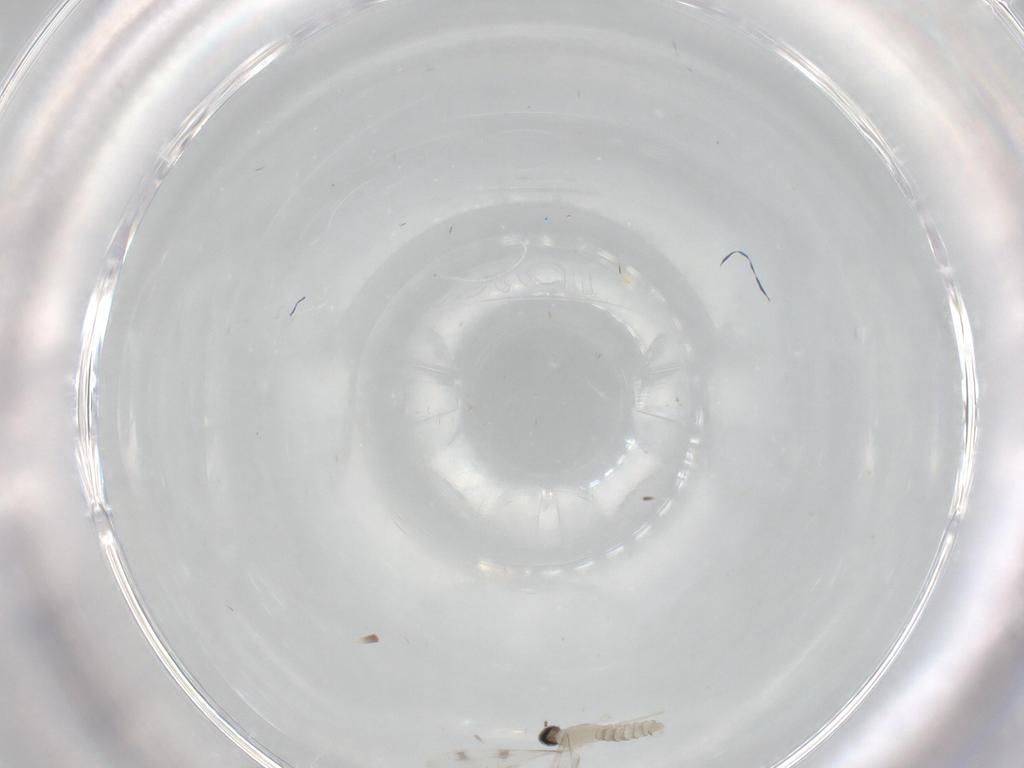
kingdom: Animalia
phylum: Arthropoda
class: Insecta
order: Diptera
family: Cecidomyiidae
